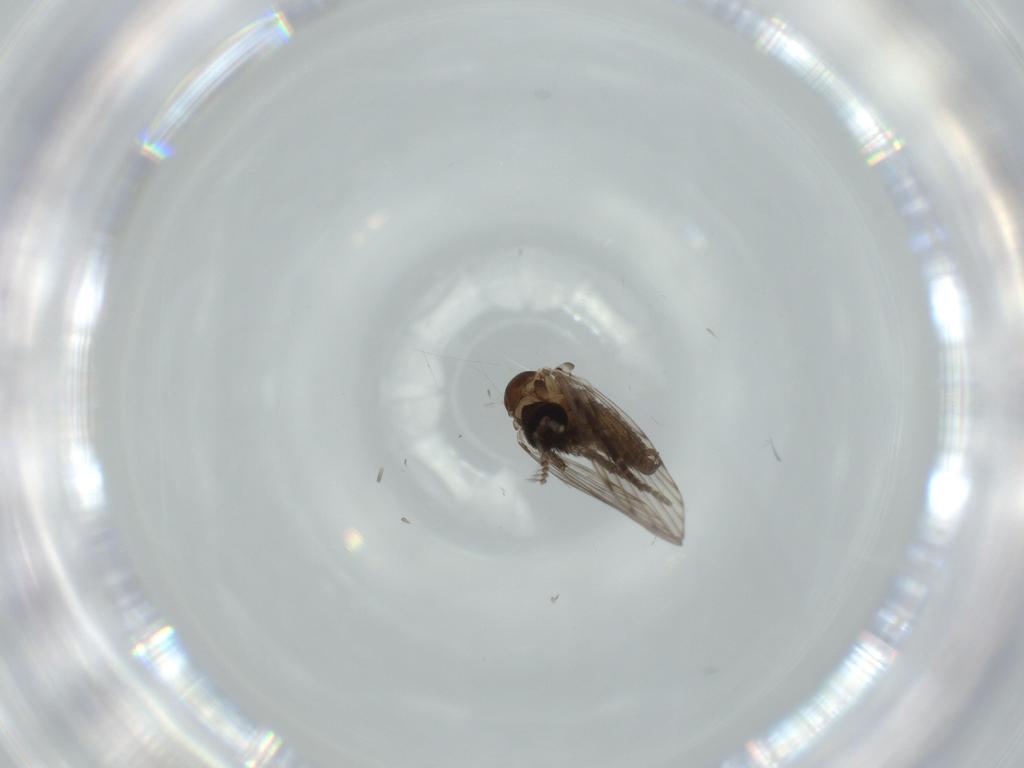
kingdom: Animalia
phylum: Arthropoda
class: Insecta
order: Diptera
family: Psychodidae
